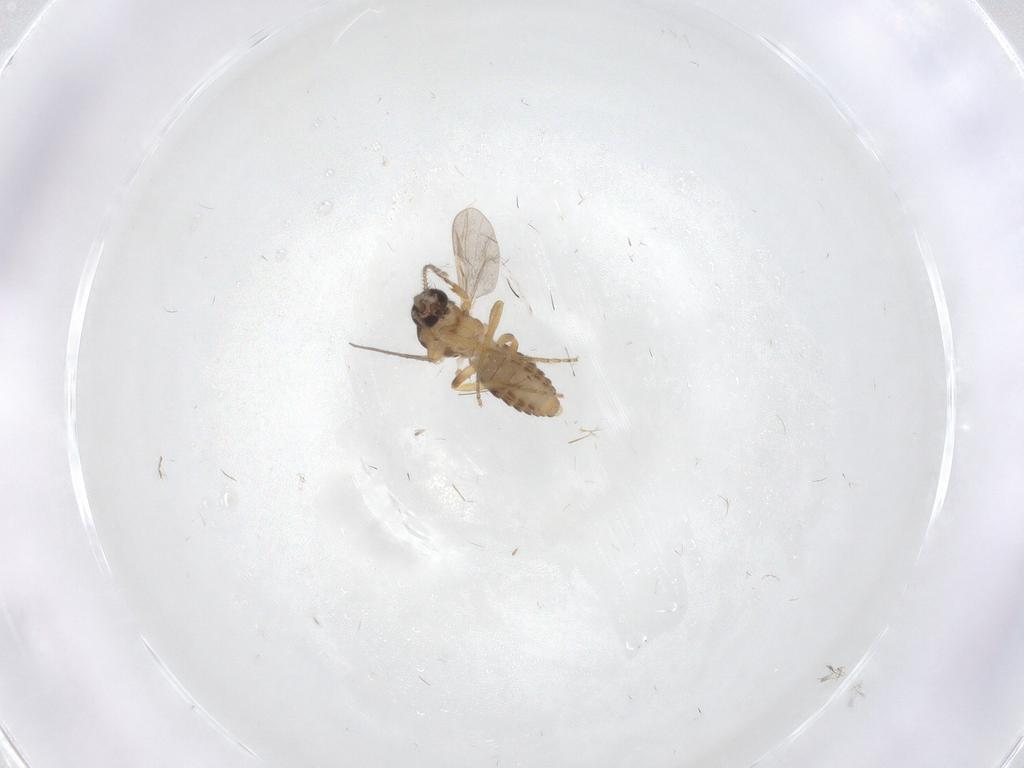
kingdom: Animalia
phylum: Arthropoda
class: Insecta
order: Diptera
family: Ceratopogonidae
